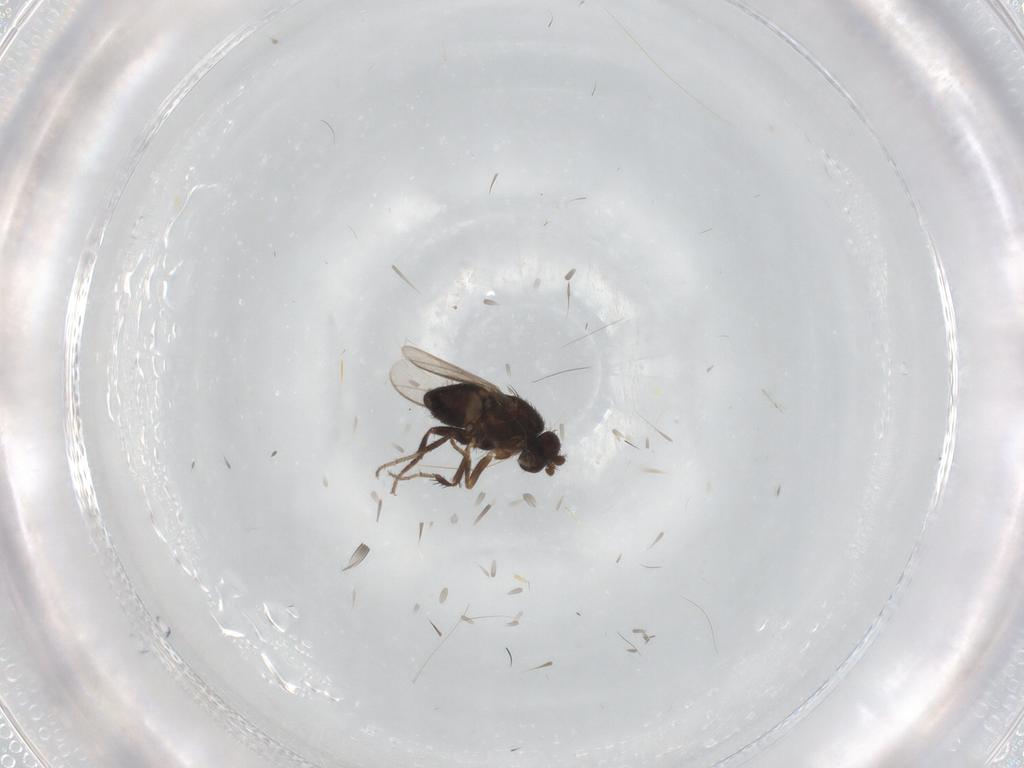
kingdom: Animalia
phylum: Arthropoda
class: Insecta
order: Diptera
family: Sphaeroceridae
